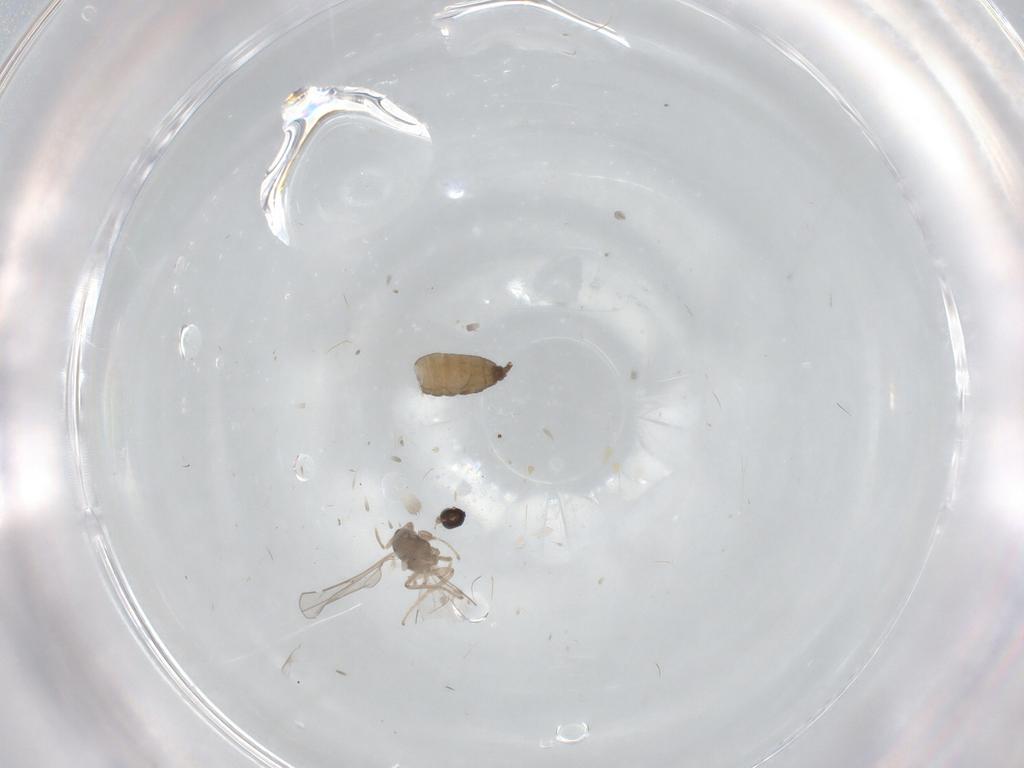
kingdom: Animalia
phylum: Arthropoda
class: Insecta
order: Diptera
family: Cecidomyiidae
